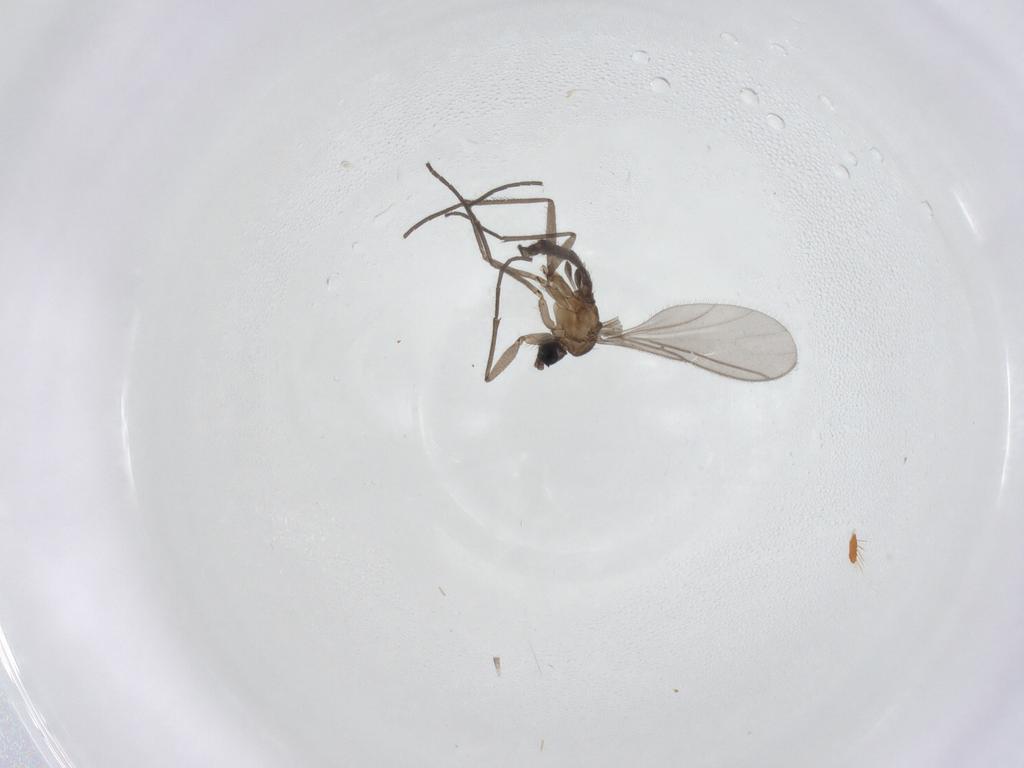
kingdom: Animalia
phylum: Arthropoda
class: Insecta
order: Diptera
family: Sciaridae
